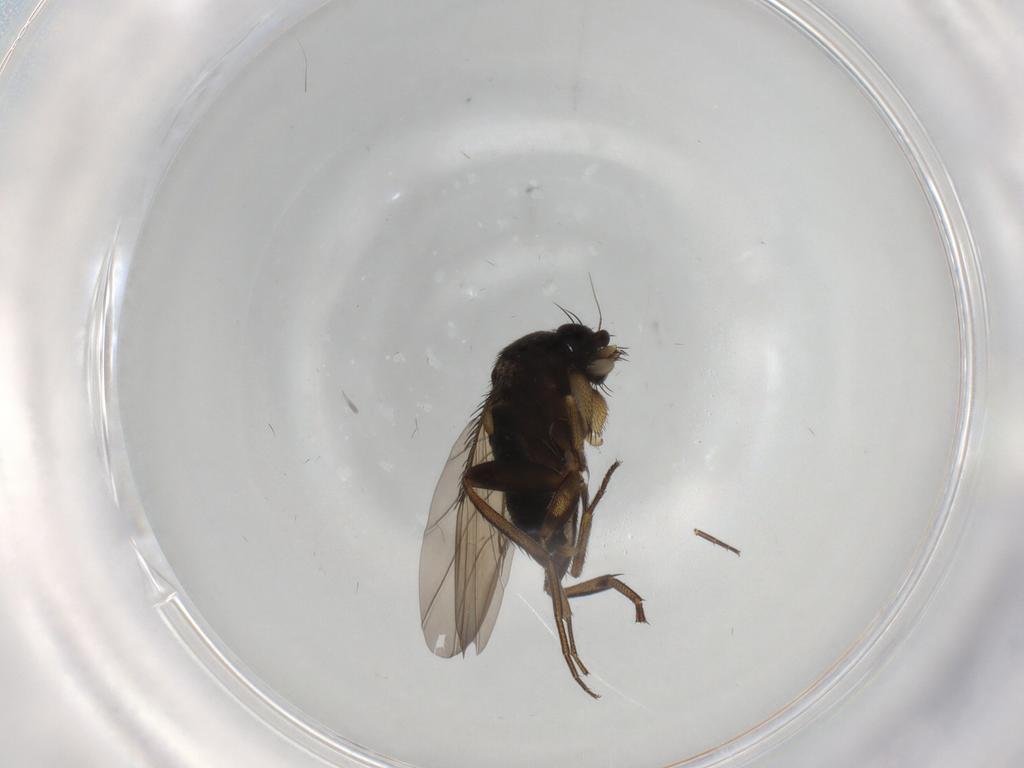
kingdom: Animalia
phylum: Arthropoda
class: Insecta
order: Diptera
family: Phoridae
